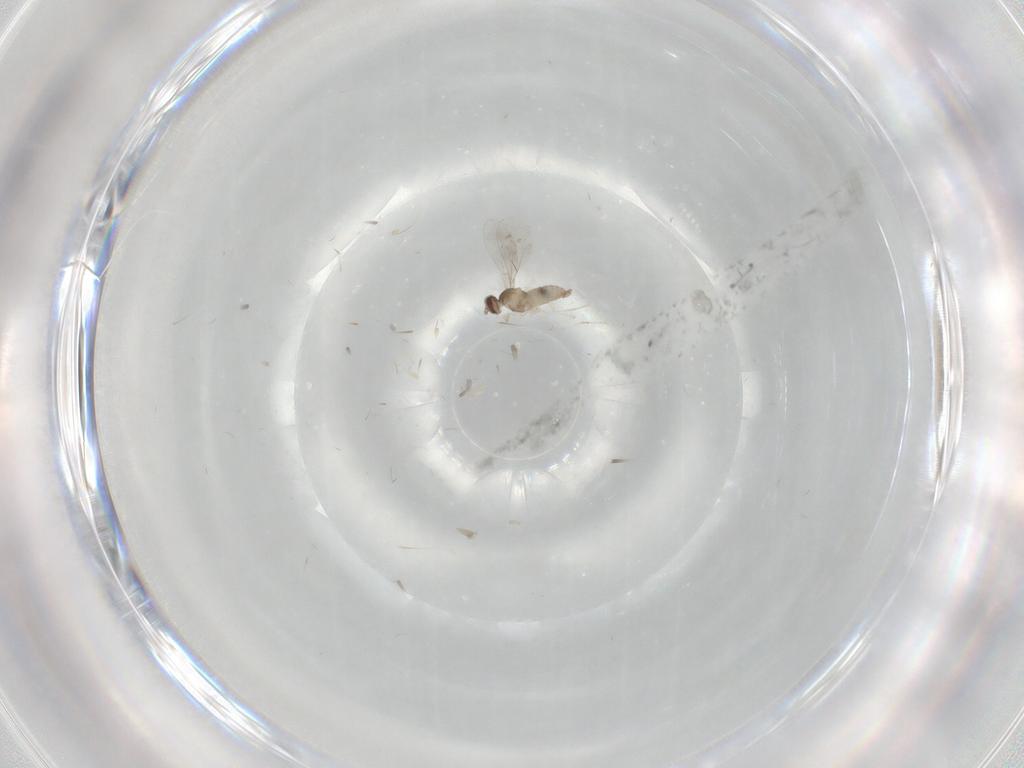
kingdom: Animalia
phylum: Arthropoda
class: Insecta
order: Diptera
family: Cecidomyiidae
